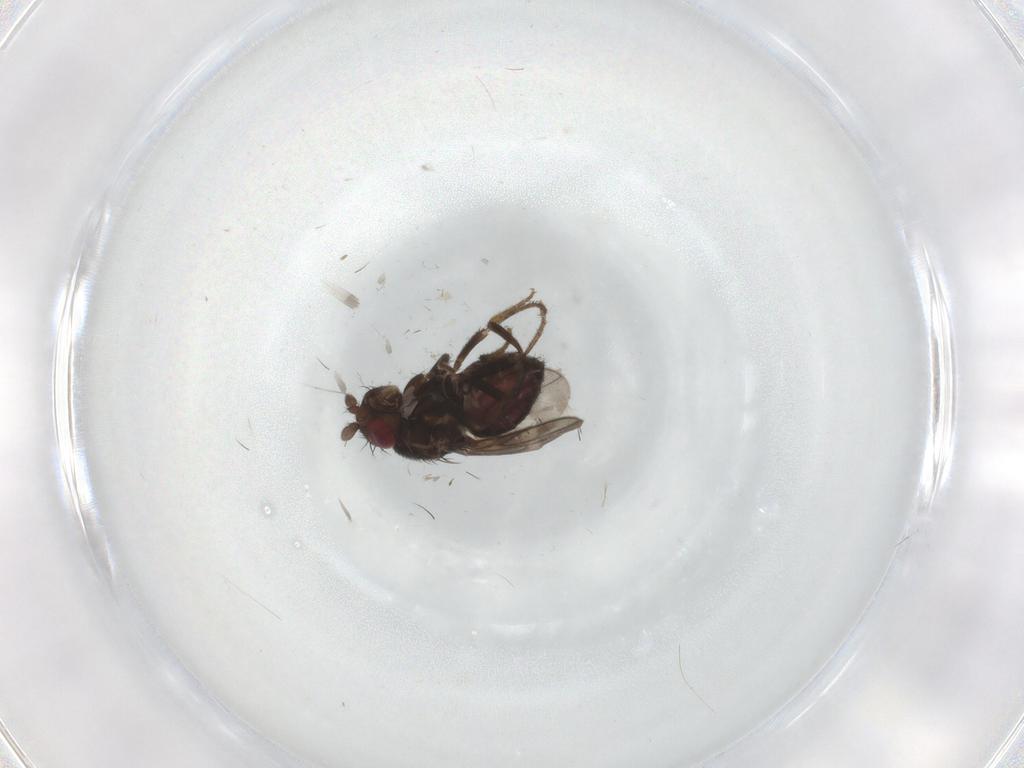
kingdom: Animalia
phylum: Arthropoda
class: Insecta
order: Diptera
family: Sphaeroceridae
